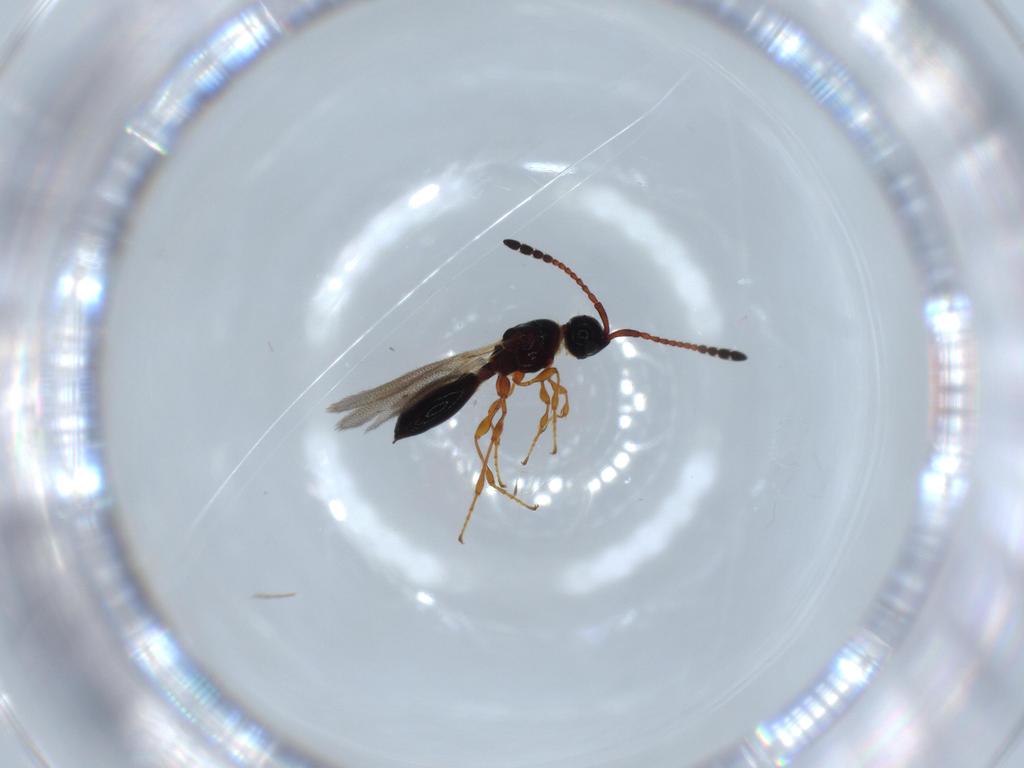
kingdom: Animalia
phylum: Arthropoda
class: Insecta
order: Hymenoptera
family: Diapriidae
